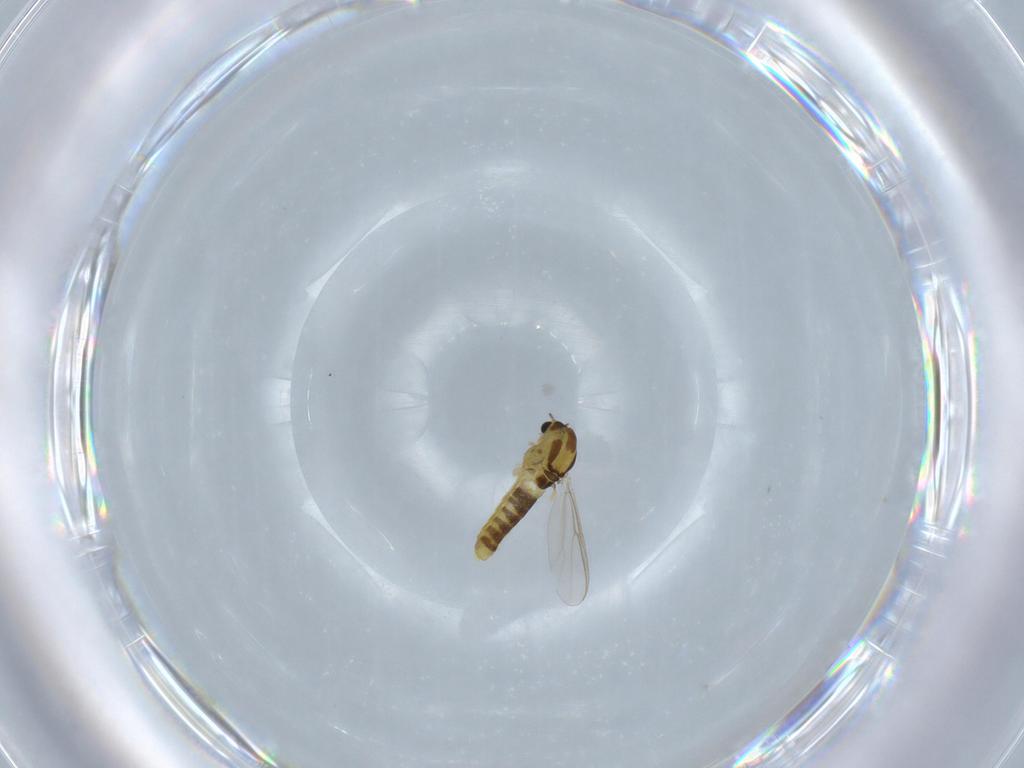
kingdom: Animalia
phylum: Arthropoda
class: Insecta
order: Diptera
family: Chironomidae
